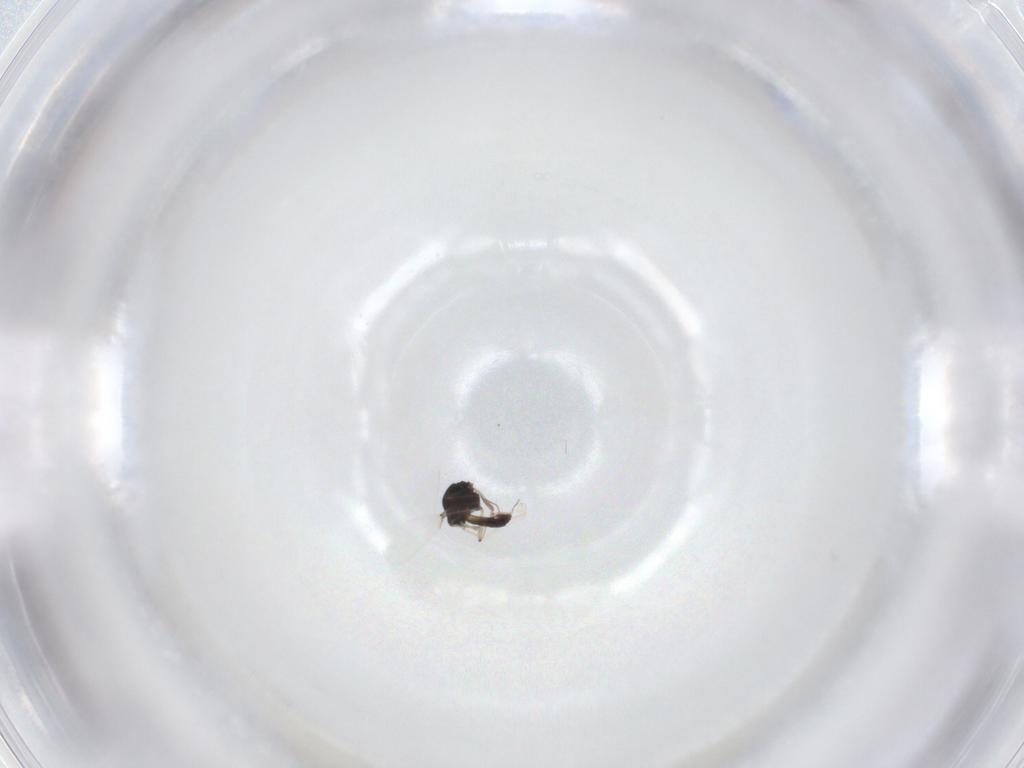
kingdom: Animalia
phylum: Arthropoda
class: Insecta
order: Diptera
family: Chironomidae
